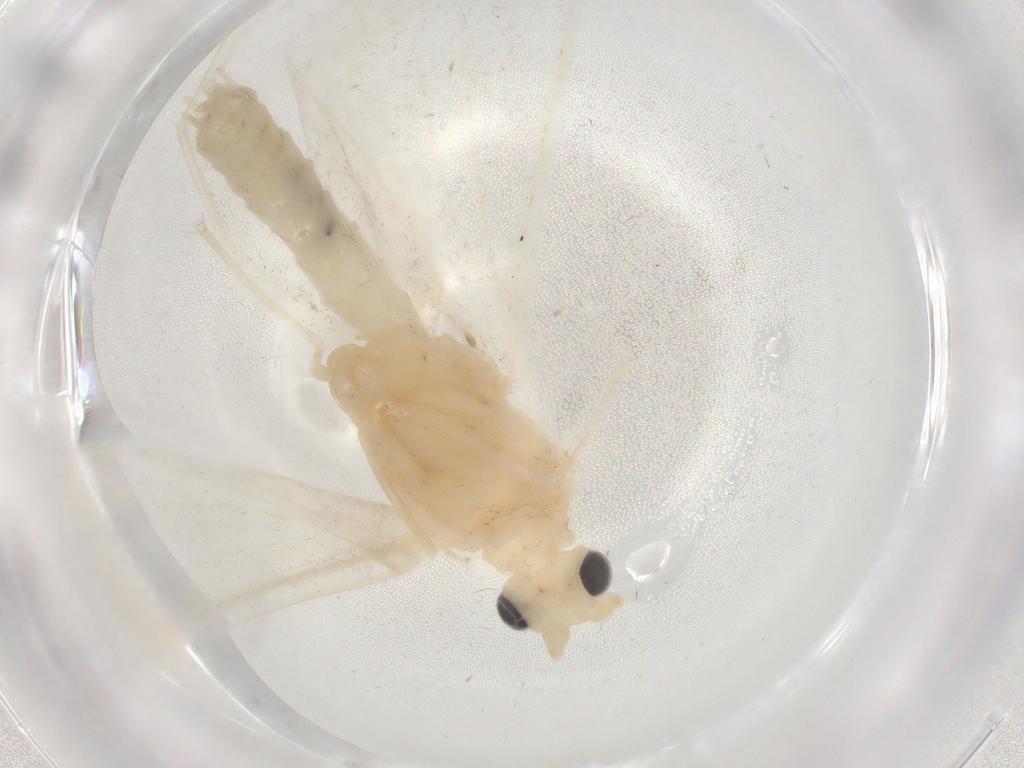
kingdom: Animalia
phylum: Arthropoda
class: Insecta
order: Trichoptera
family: Leptoceridae
